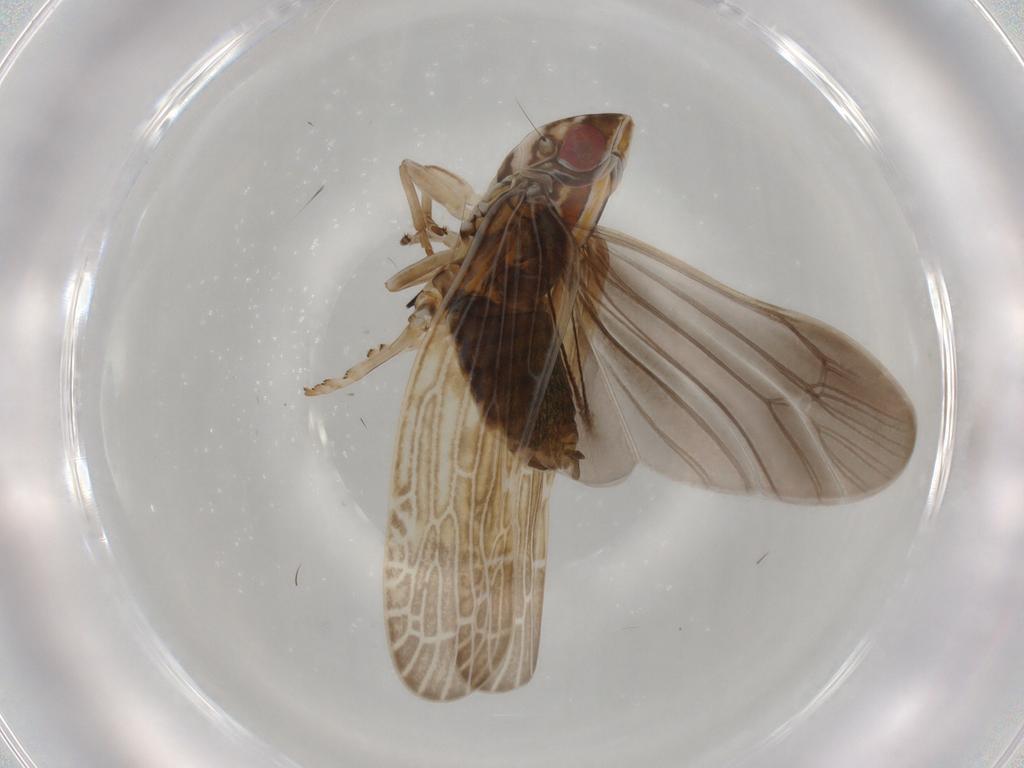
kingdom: Animalia
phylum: Arthropoda
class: Insecta
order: Hemiptera
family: Achilidae
